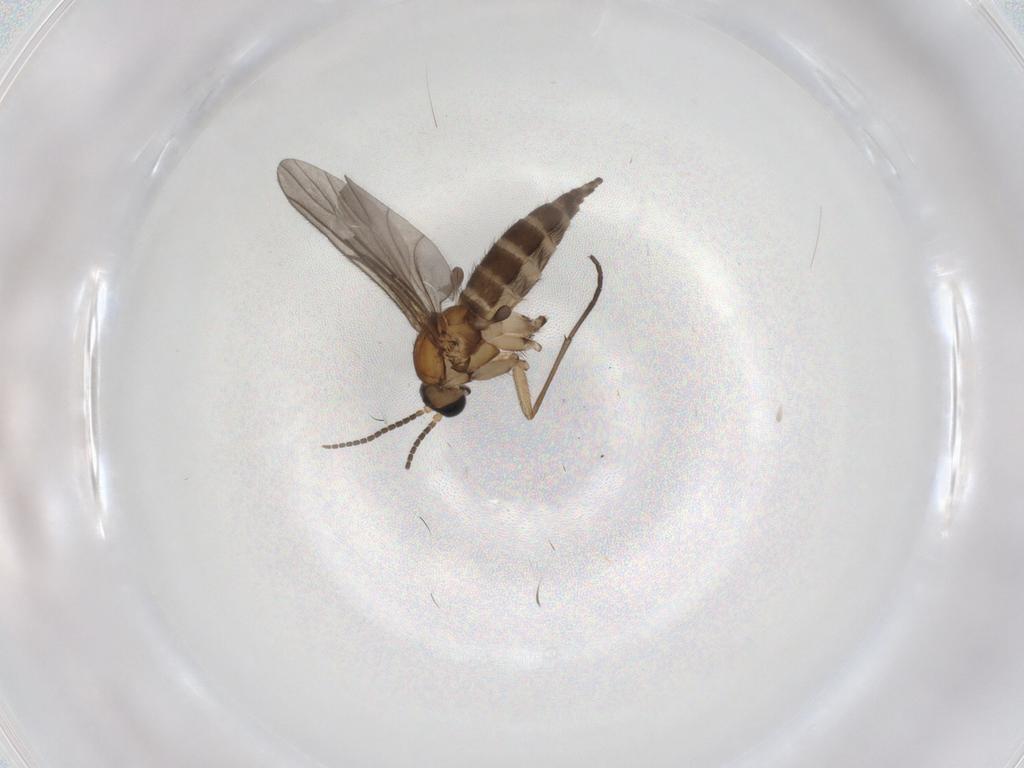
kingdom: Animalia
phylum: Arthropoda
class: Insecta
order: Diptera
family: Sciaridae
